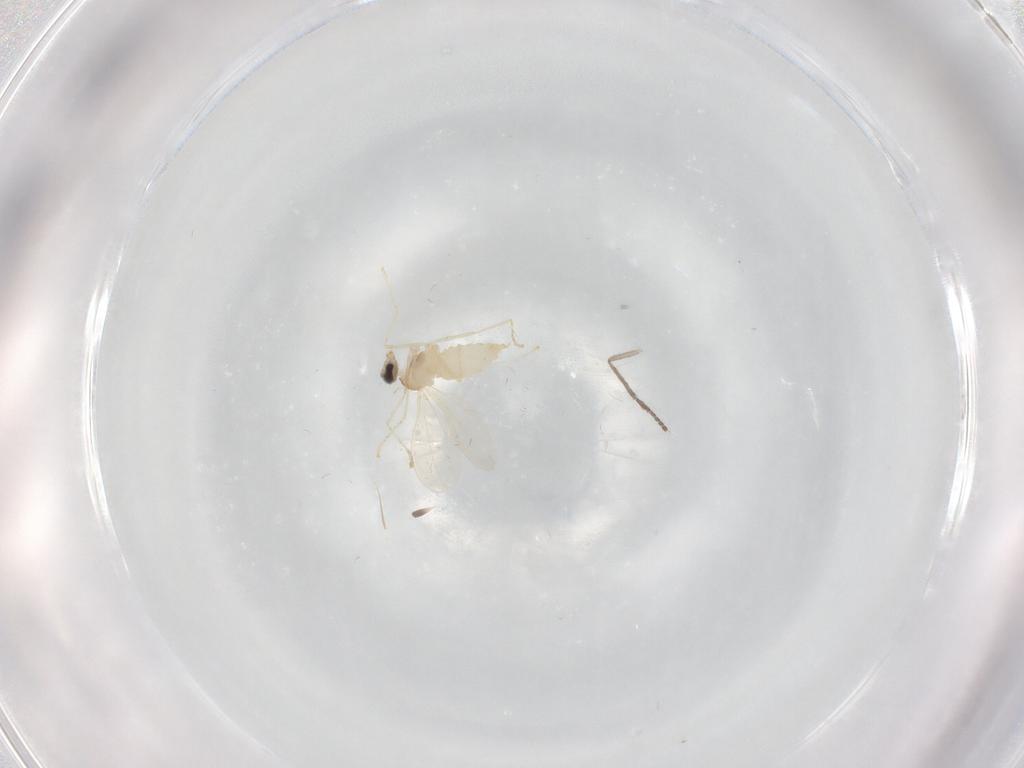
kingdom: Animalia
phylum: Arthropoda
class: Insecta
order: Diptera
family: Cecidomyiidae
